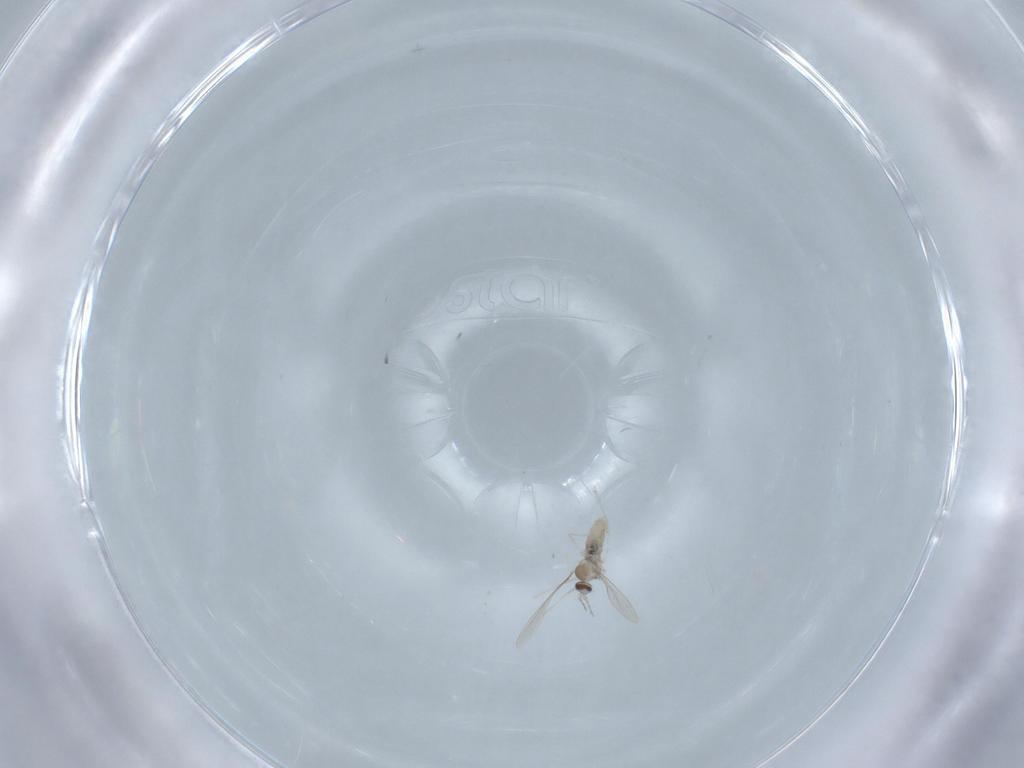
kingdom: Animalia
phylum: Arthropoda
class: Insecta
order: Diptera
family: Cecidomyiidae
